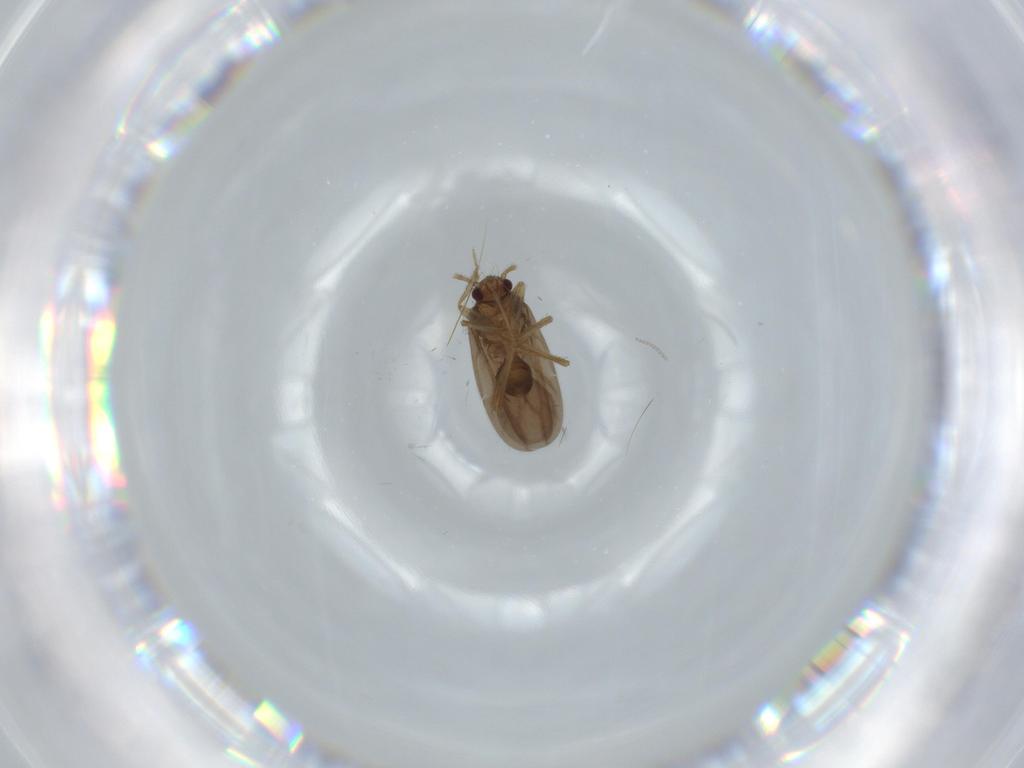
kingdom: Animalia
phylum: Arthropoda
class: Insecta
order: Hemiptera
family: Ceratocombidae
